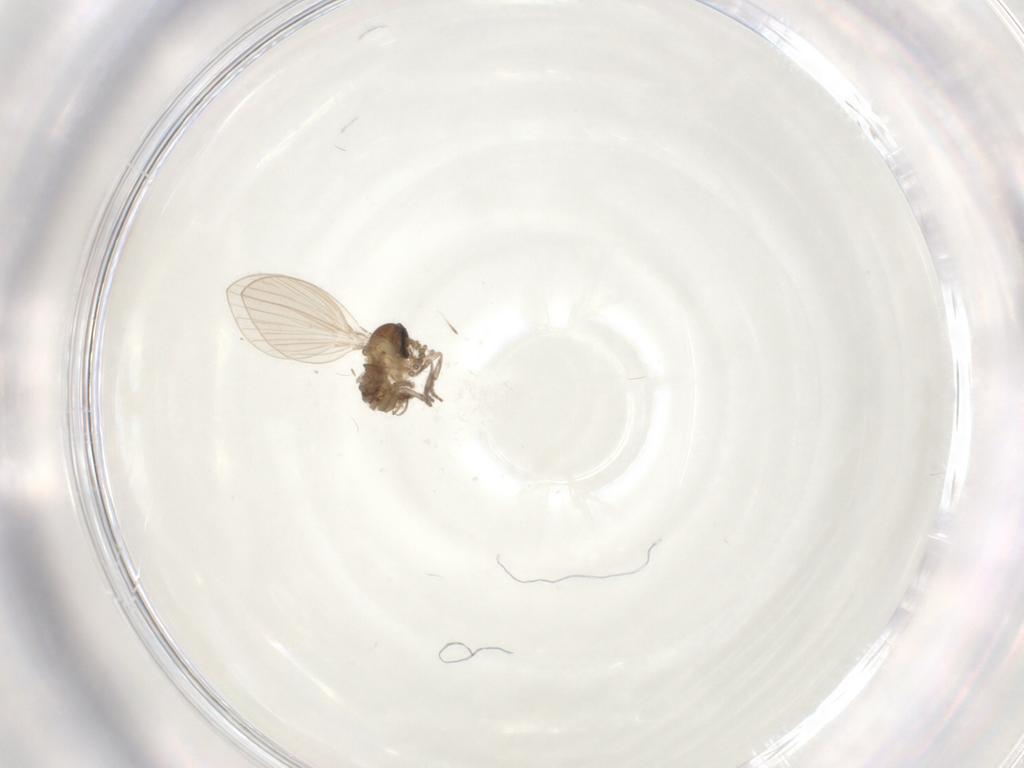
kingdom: Animalia
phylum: Arthropoda
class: Insecta
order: Diptera
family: Psychodidae
